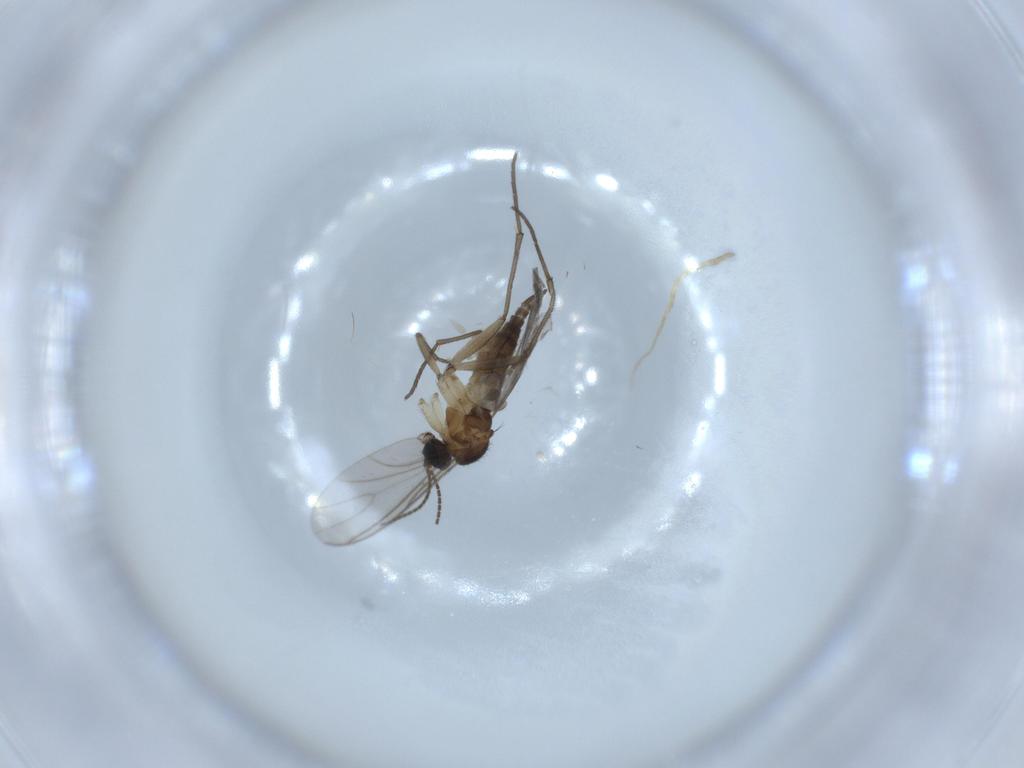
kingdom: Animalia
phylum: Arthropoda
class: Insecta
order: Diptera
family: Sciaridae
